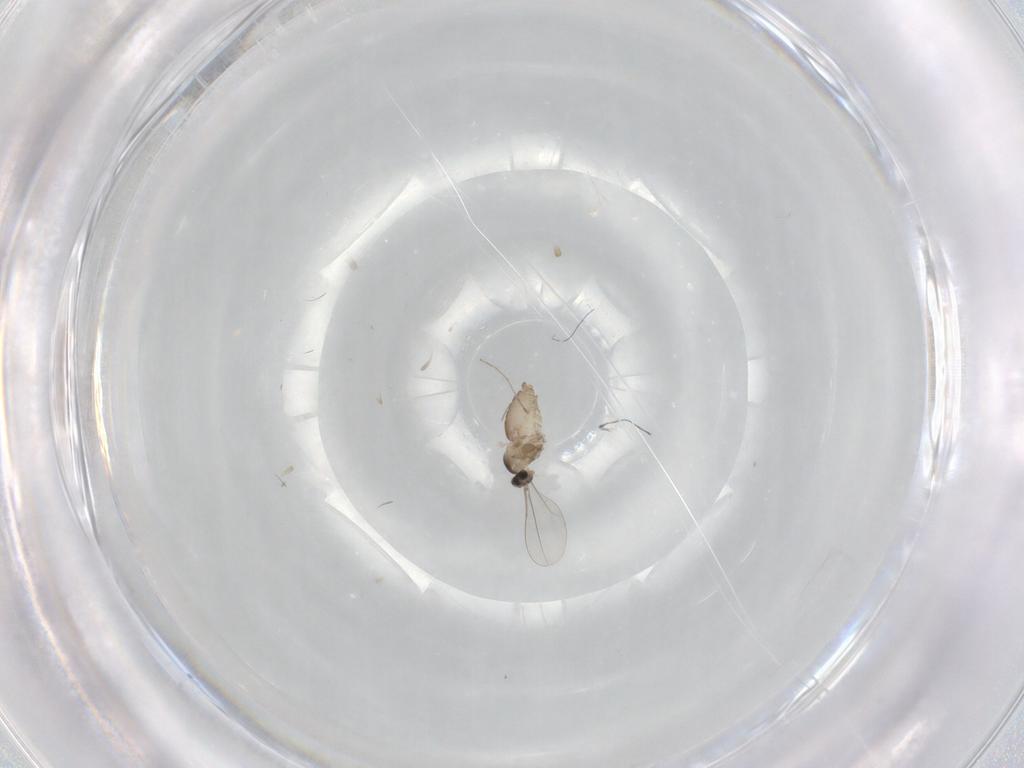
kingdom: Animalia
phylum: Arthropoda
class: Insecta
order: Diptera
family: Cecidomyiidae
